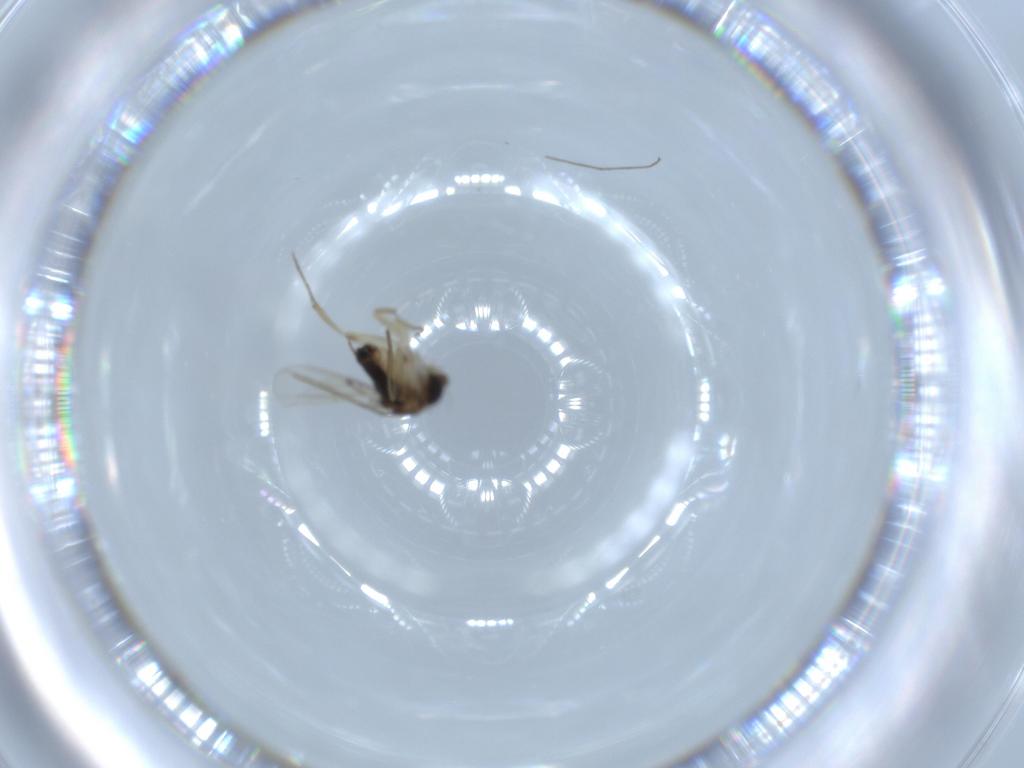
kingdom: Animalia
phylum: Arthropoda
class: Insecta
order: Diptera
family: Phoridae
